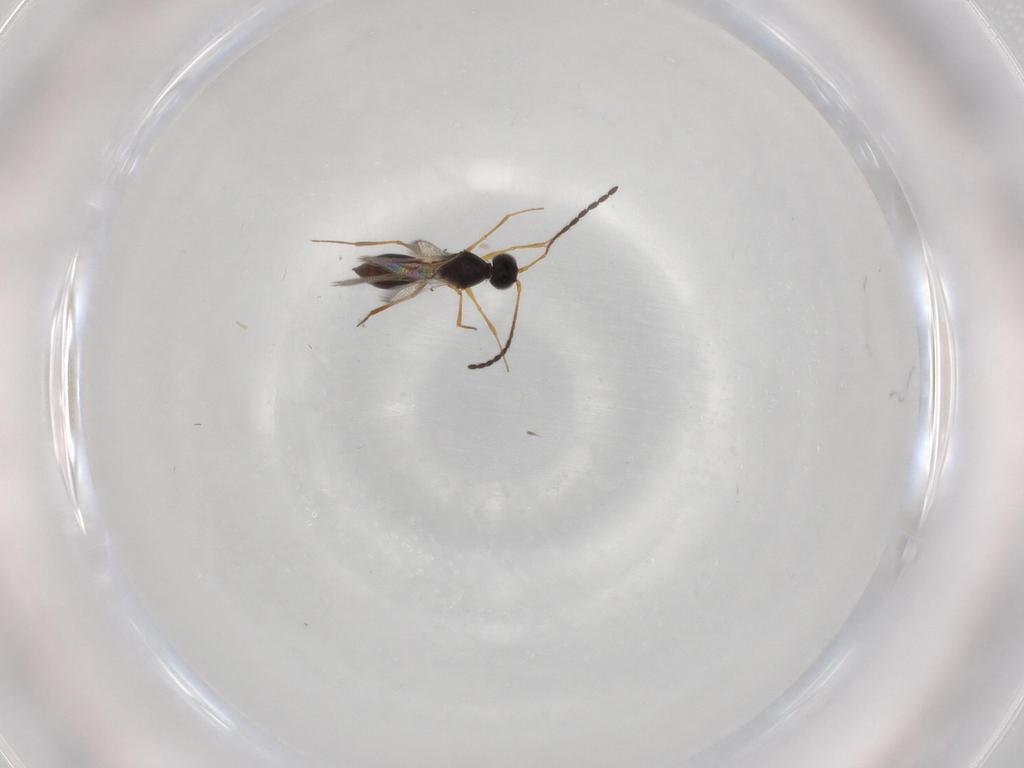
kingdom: Animalia
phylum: Arthropoda
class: Insecta
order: Hymenoptera
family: Figitidae
